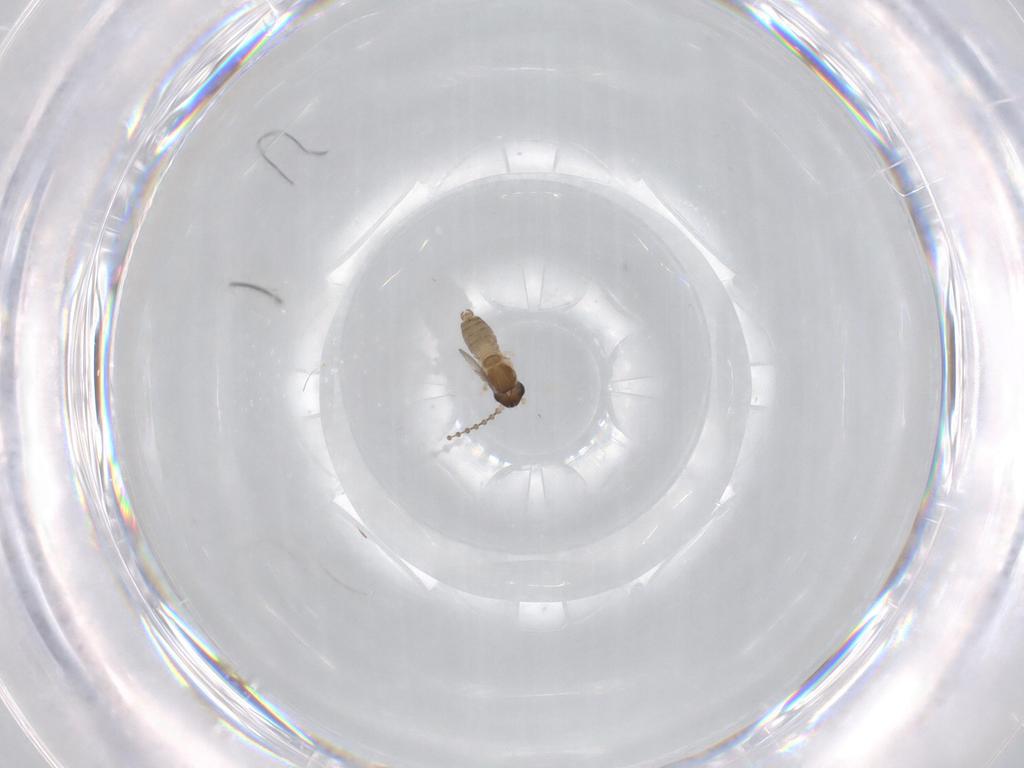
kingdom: Animalia
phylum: Arthropoda
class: Insecta
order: Diptera
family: Cecidomyiidae
